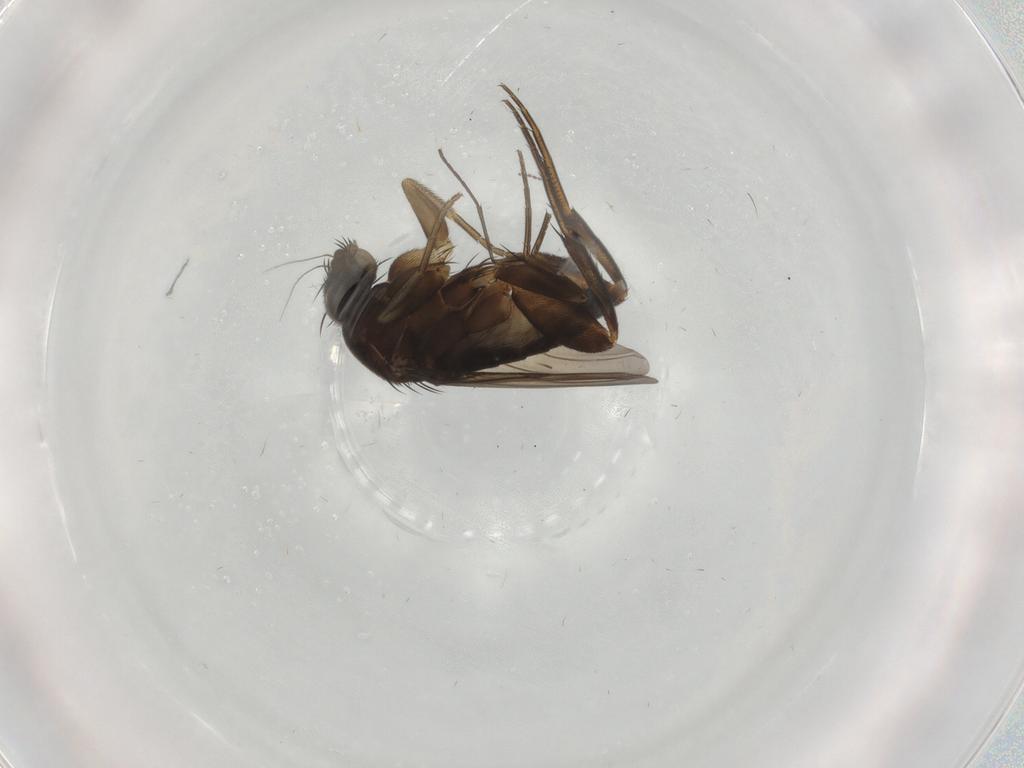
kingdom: Animalia
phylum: Arthropoda
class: Insecta
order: Diptera
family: Phoridae
